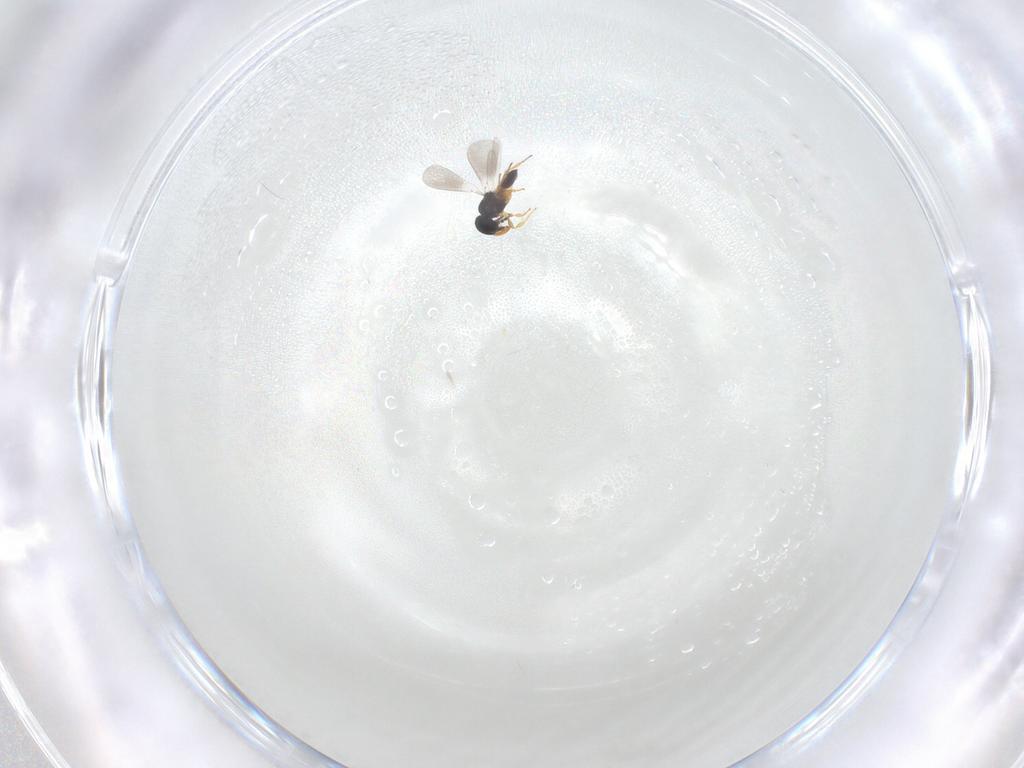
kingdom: Animalia
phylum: Arthropoda
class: Insecta
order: Hymenoptera
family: Platygastridae
